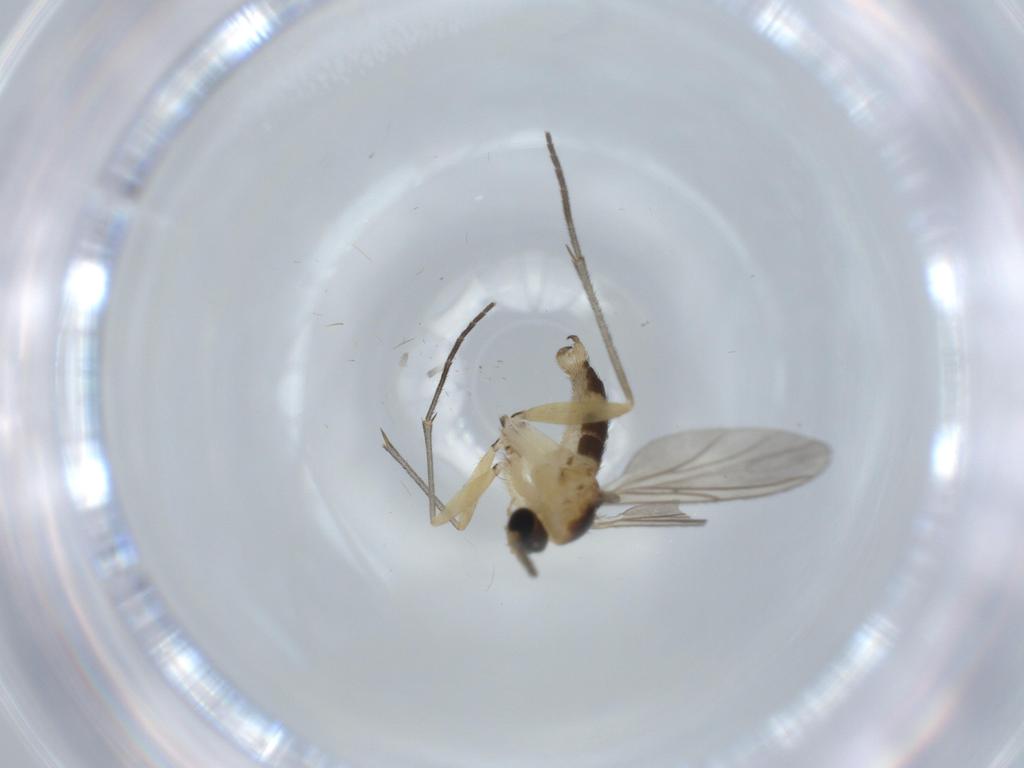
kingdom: Animalia
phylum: Arthropoda
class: Insecta
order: Diptera
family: Sciaridae
